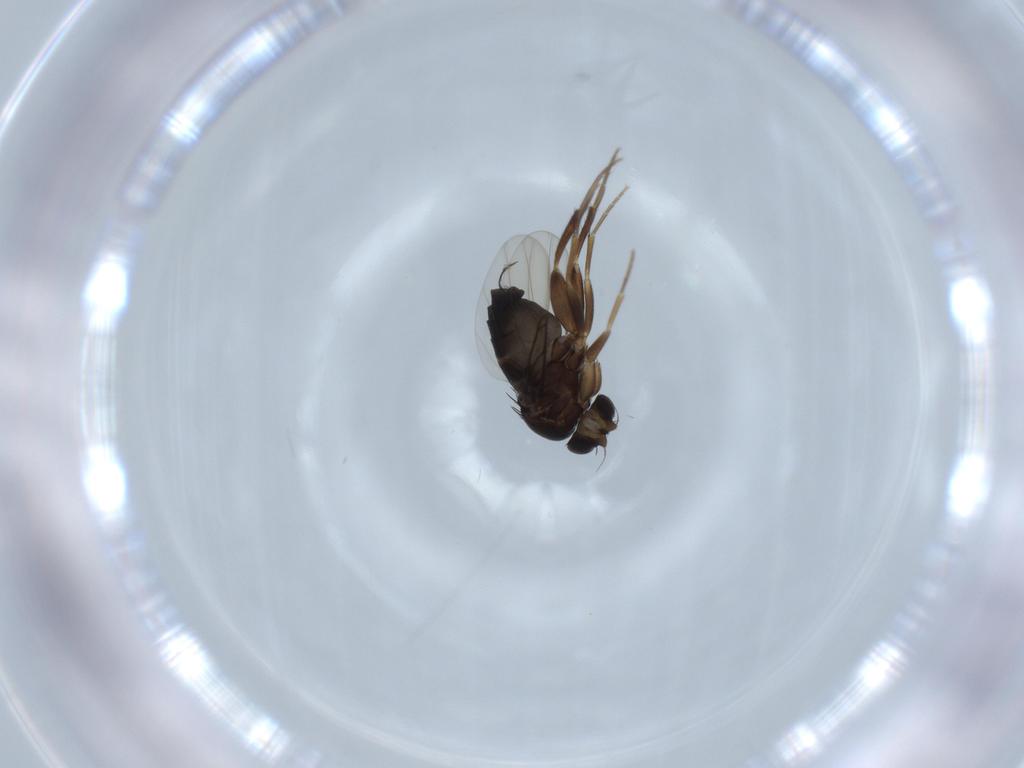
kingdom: Animalia
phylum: Arthropoda
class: Insecta
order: Diptera
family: Phoridae
